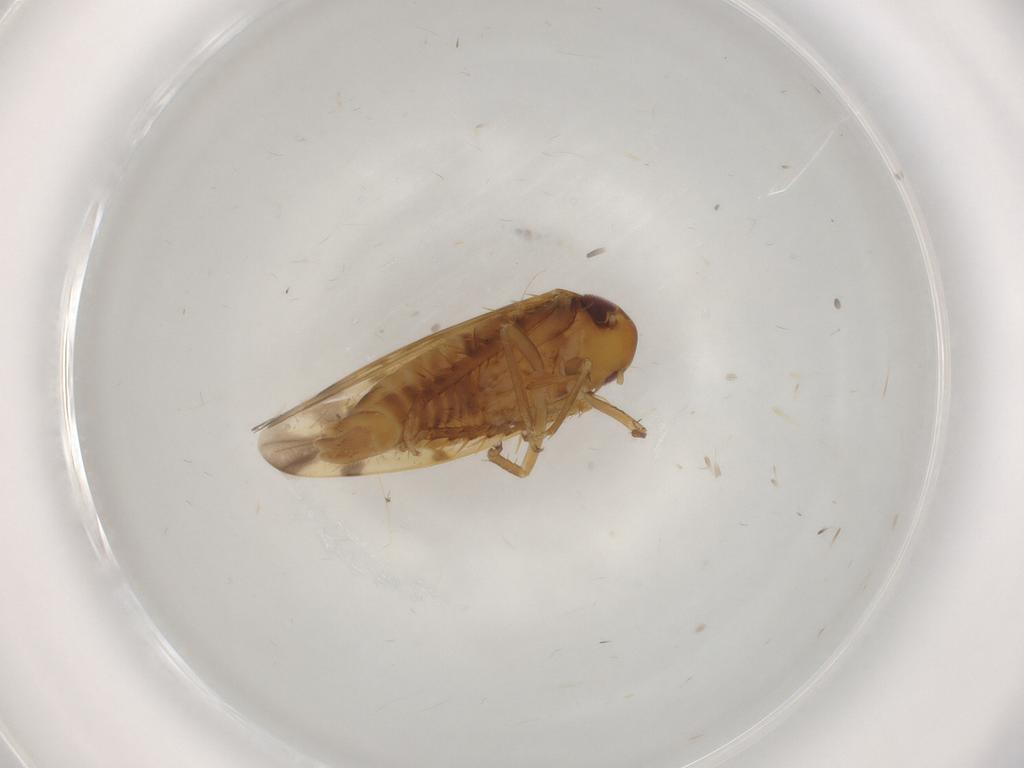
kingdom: Animalia
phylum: Arthropoda
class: Insecta
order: Hemiptera
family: Cicadellidae
